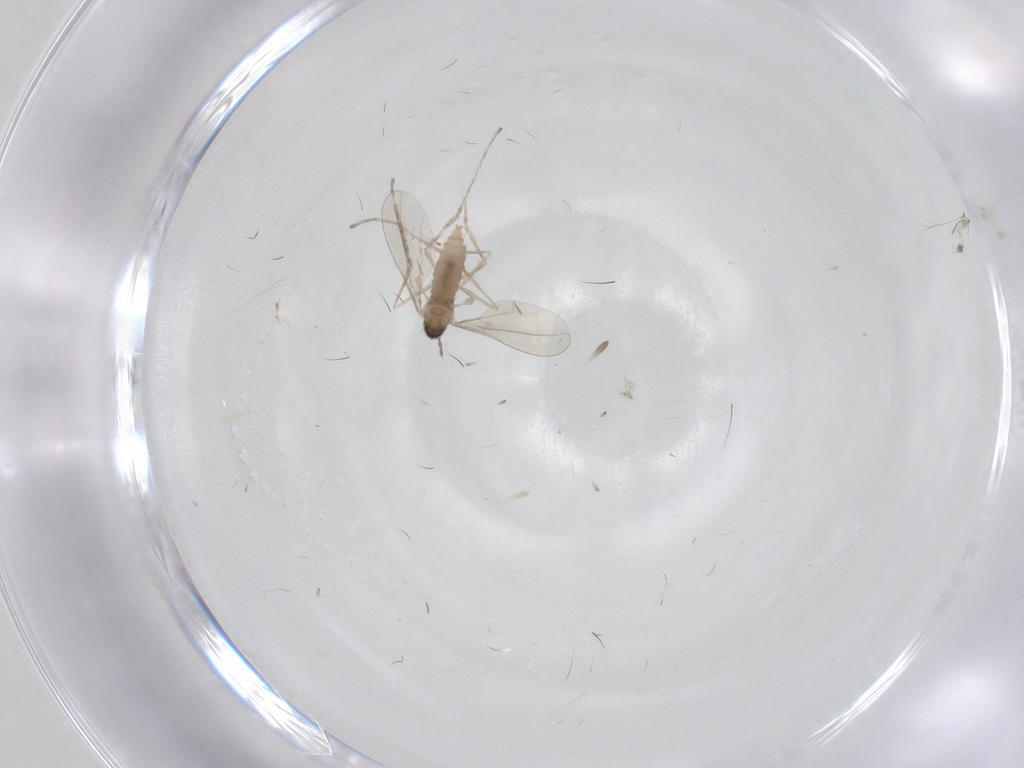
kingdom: Animalia
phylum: Arthropoda
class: Insecta
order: Diptera
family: Cecidomyiidae
